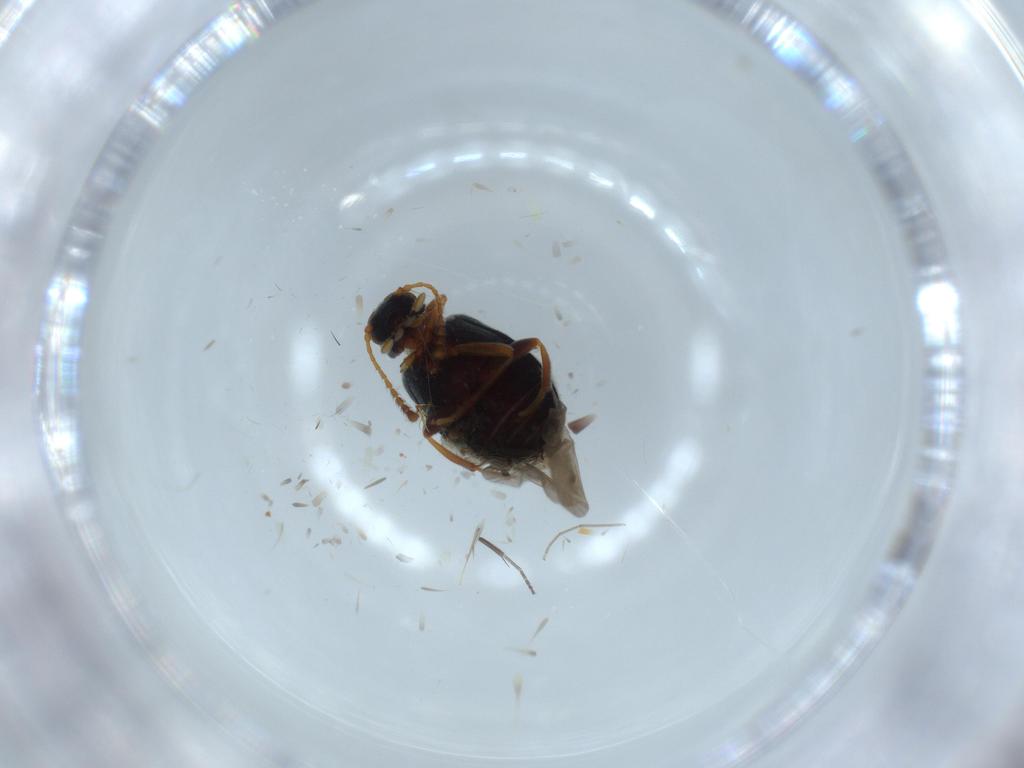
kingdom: Animalia
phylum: Arthropoda
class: Insecta
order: Coleoptera
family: Aderidae
